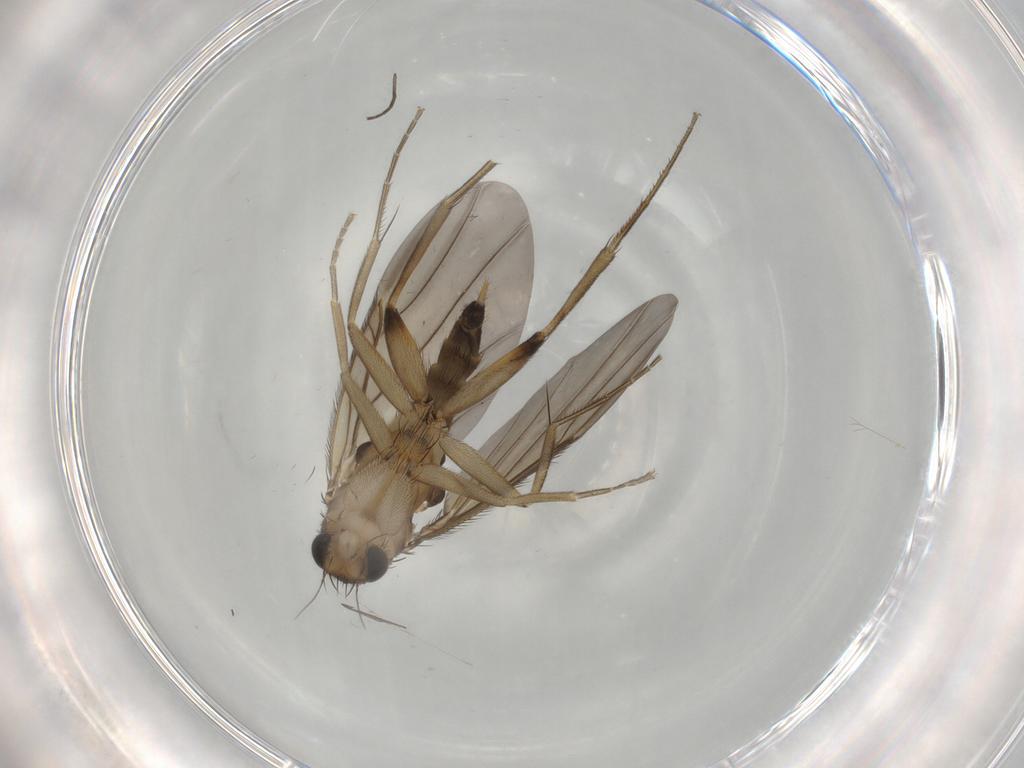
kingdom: Animalia
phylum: Arthropoda
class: Insecta
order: Diptera
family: Phoridae
